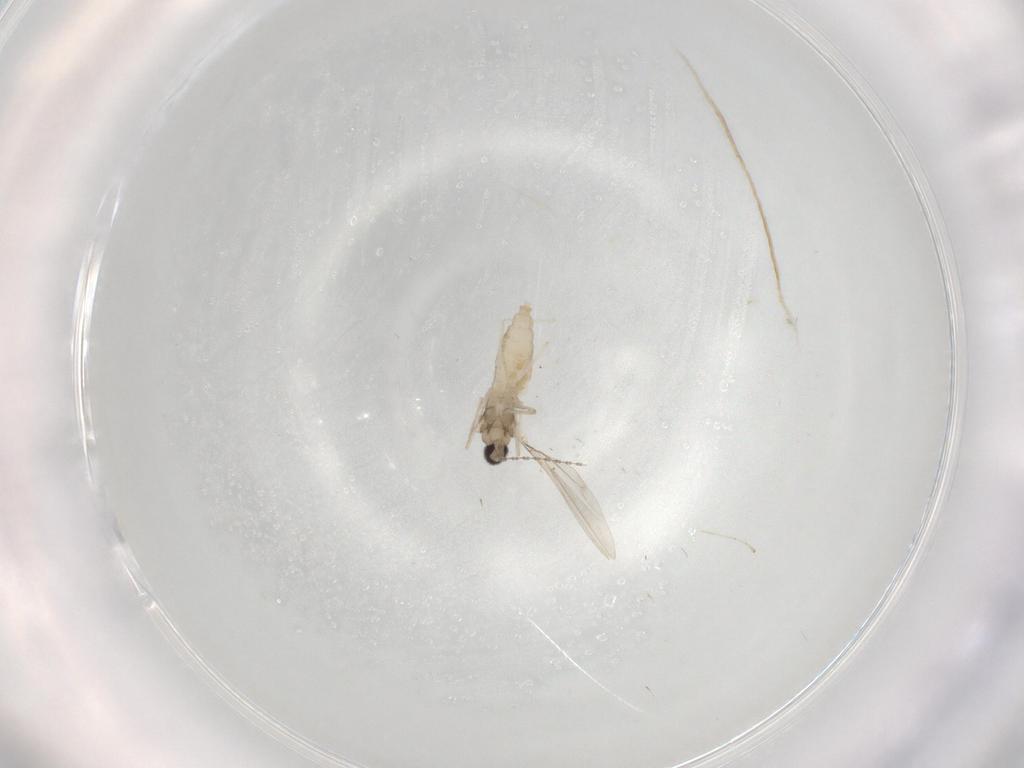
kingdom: Animalia
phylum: Arthropoda
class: Insecta
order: Diptera
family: Cecidomyiidae
